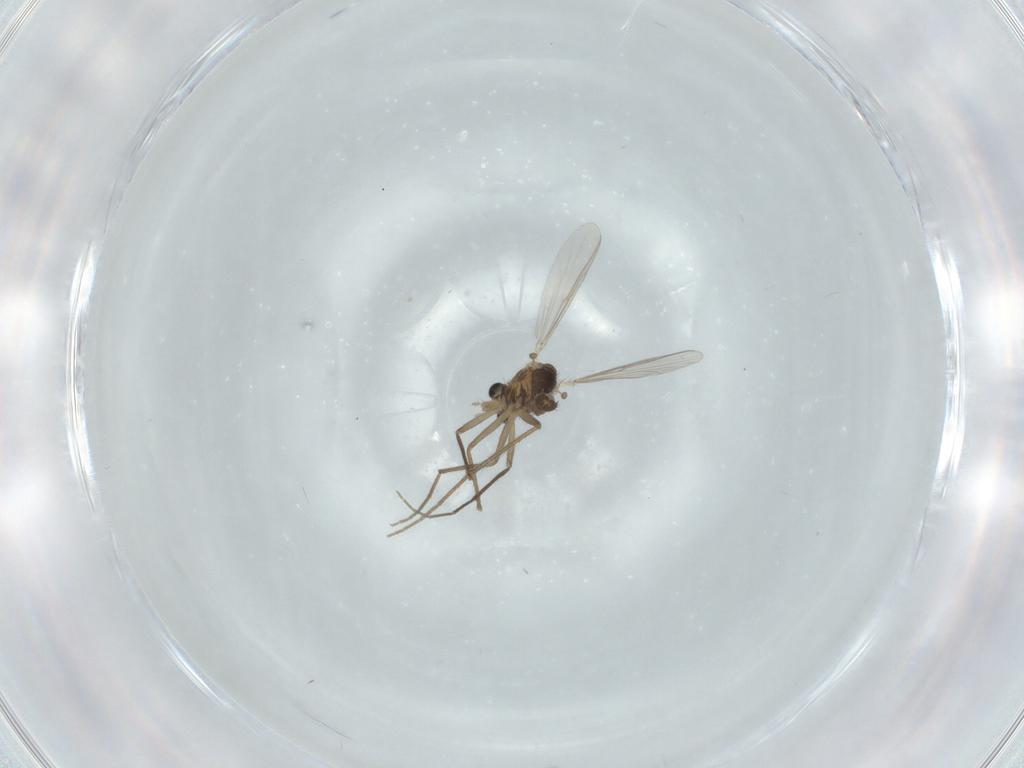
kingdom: Animalia
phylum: Arthropoda
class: Insecta
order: Diptera
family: Chironomidae
